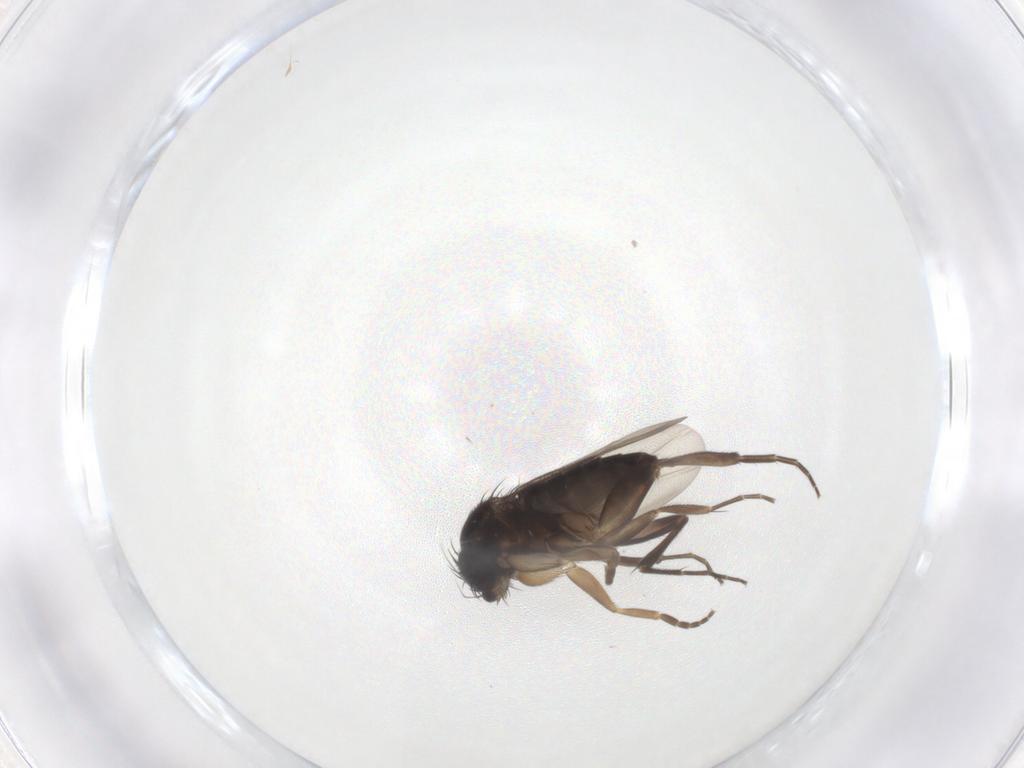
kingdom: Animalia
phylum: Arthropoda
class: Insecta
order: Diptera
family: Phoridae
